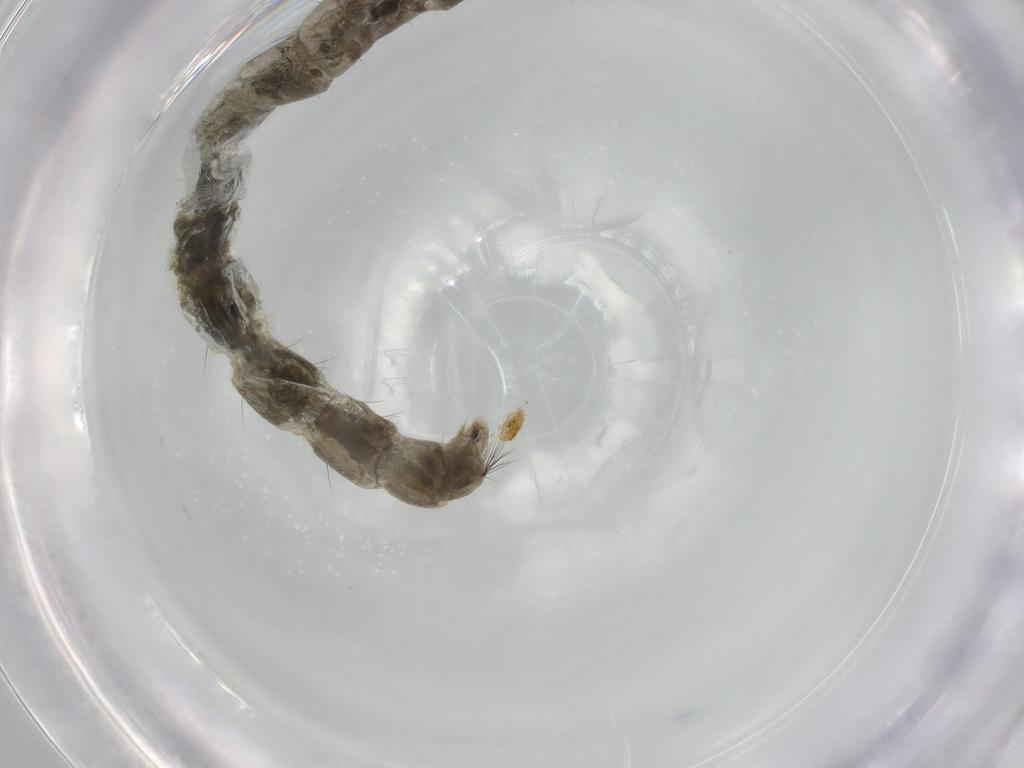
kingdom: Animalia
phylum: Arthropoda
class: Insecta
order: Diptera
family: Chironomidae
